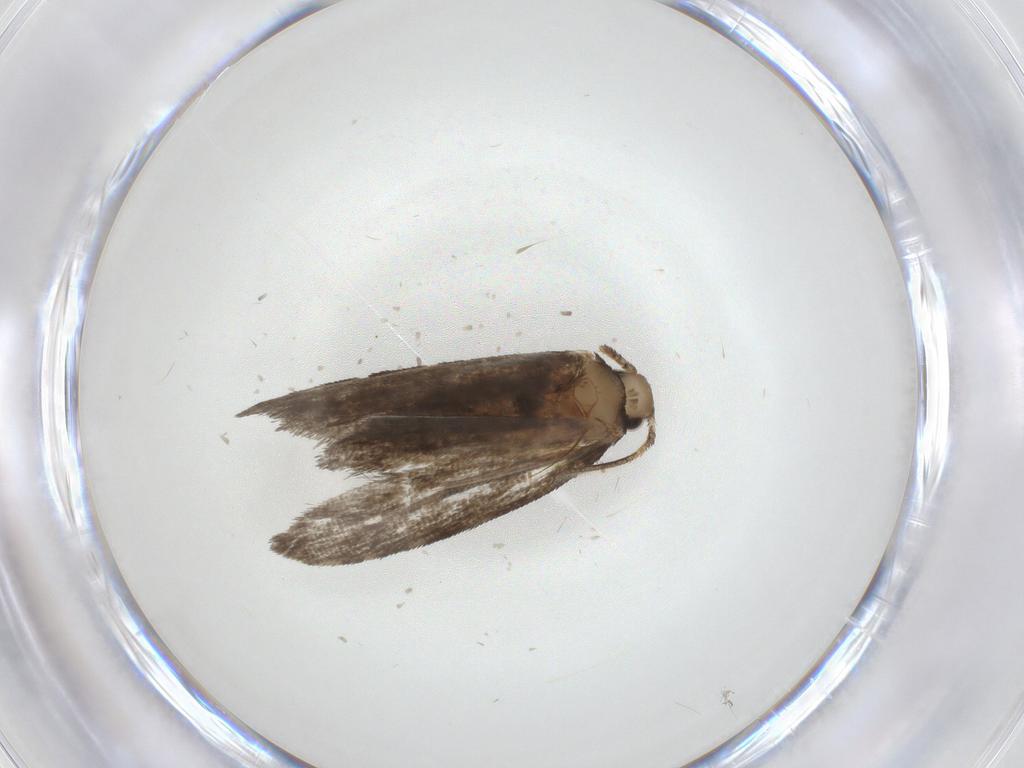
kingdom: Animalia
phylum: Arthropoda
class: Insecta
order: Lepidoptera
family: Psychidae
